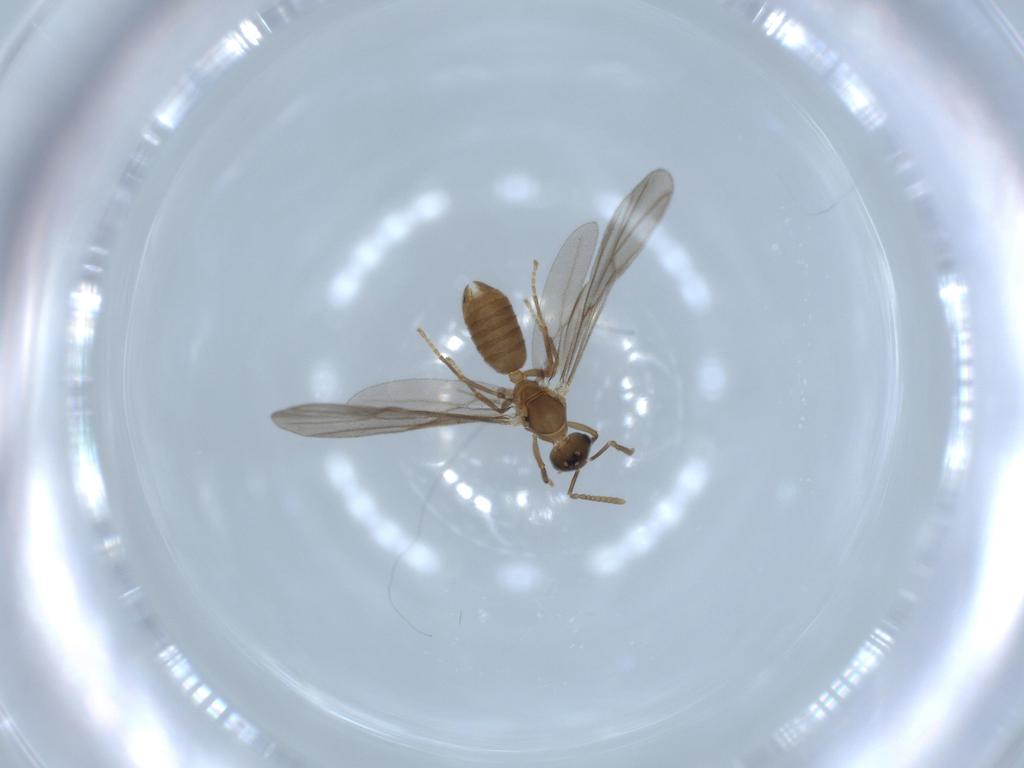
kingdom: Animalia
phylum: Arthropoda
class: Insecta
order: Hymenoptera
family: Formicidae
